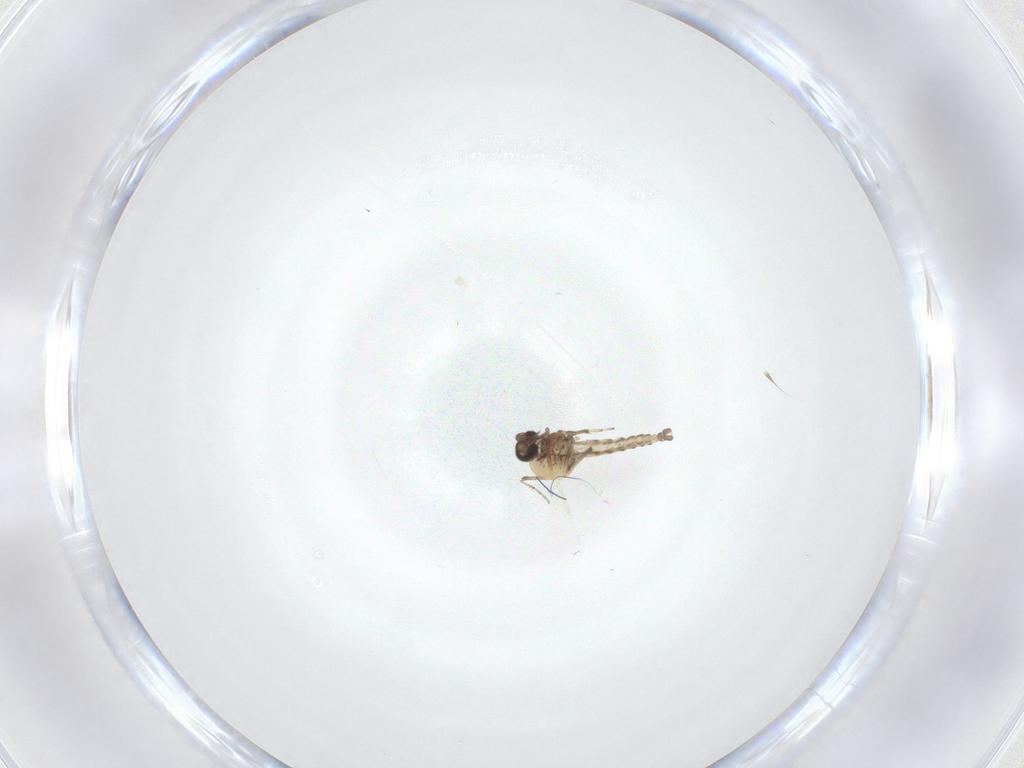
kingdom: Animalia
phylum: Arthropoda
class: Insecta
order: Diptera
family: Ceratopogonidae
